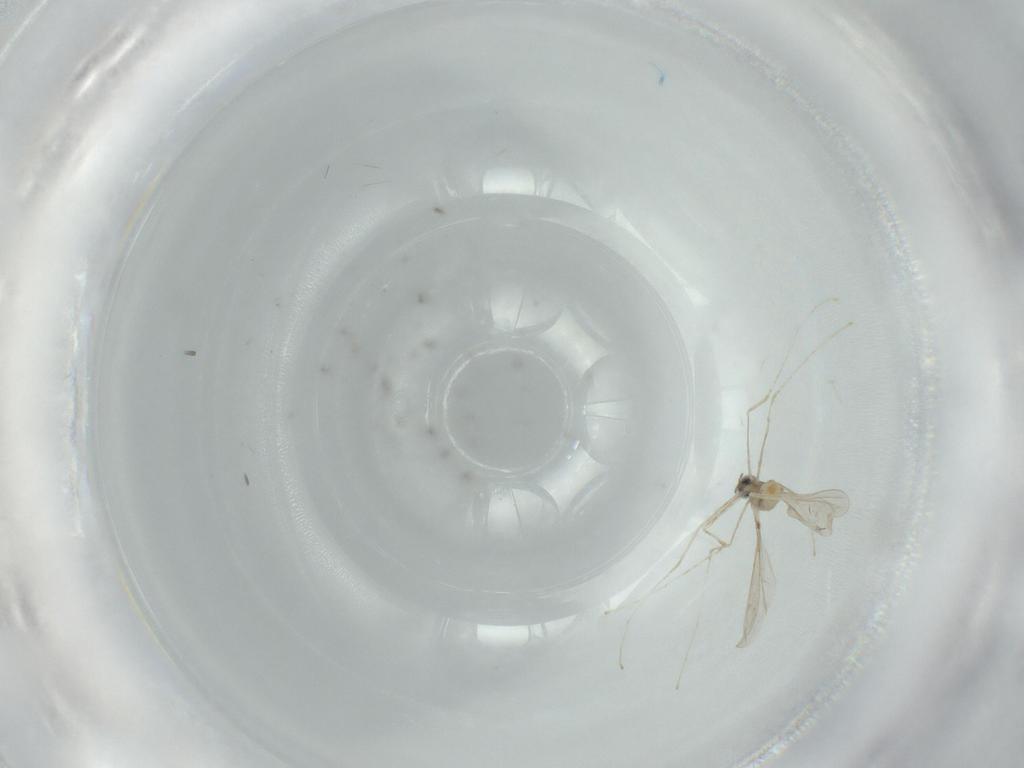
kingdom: Animalia
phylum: Arthropoda
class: Insecta
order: Diptera
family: Cecidomyiidae
